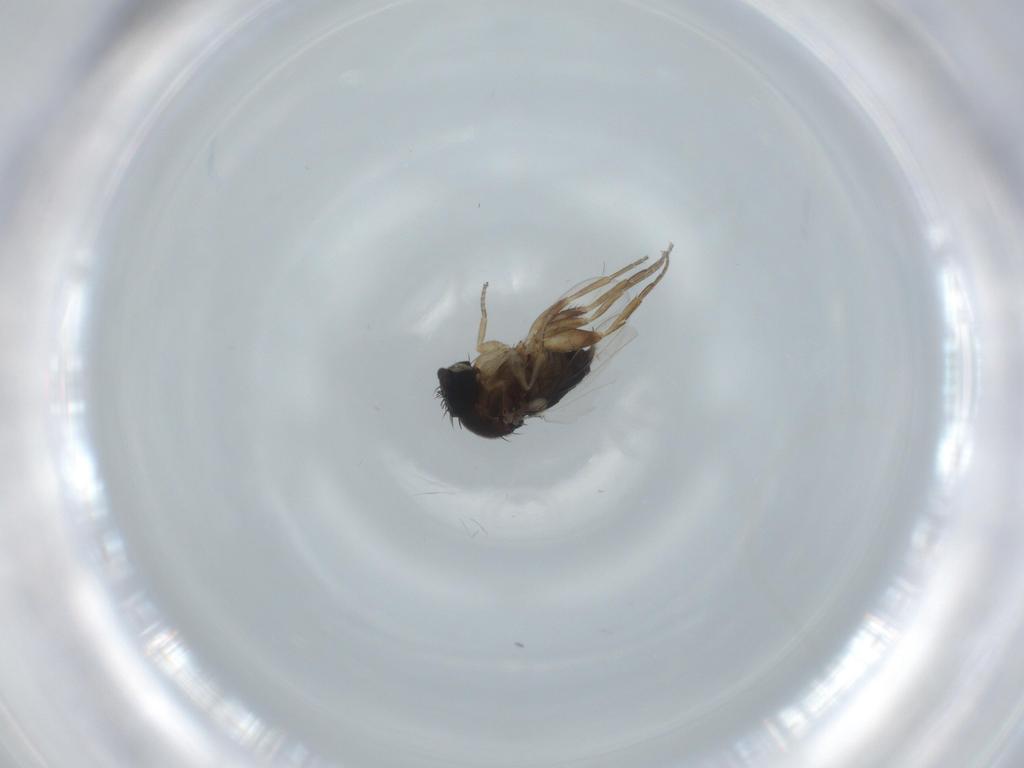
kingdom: Animalia
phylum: Arthropoda
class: Insecta
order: Diptera
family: Phoridae
